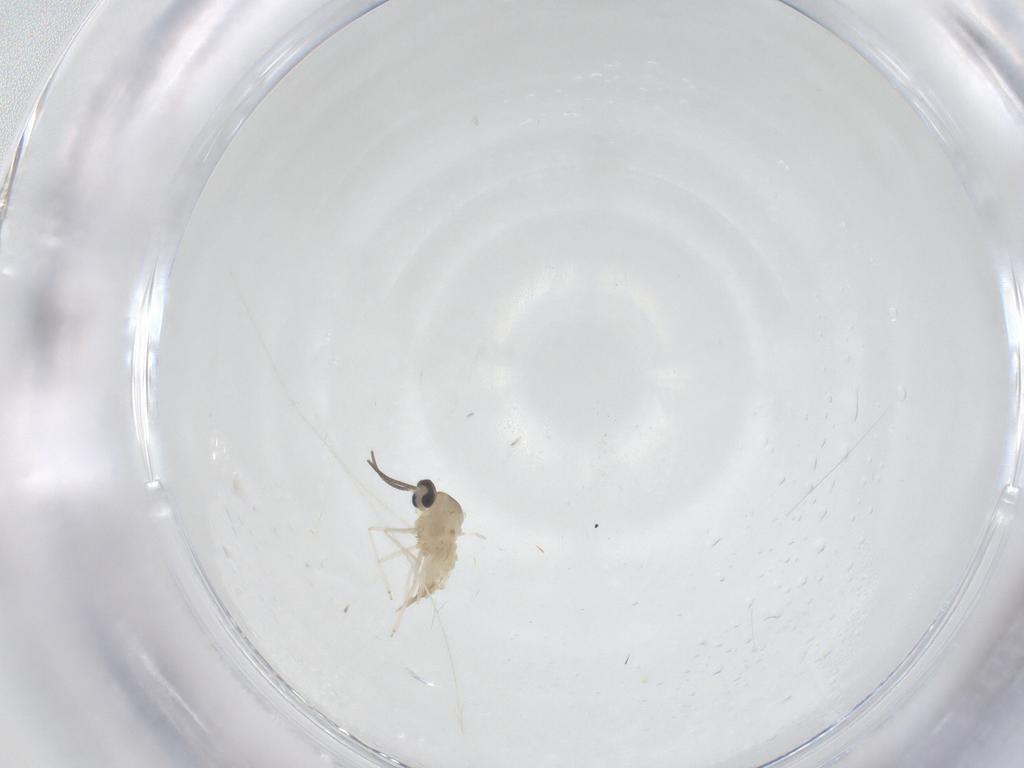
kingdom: Animalia
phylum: Arthropoda
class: Insecta
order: Diptera
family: Cecidomyiidae
